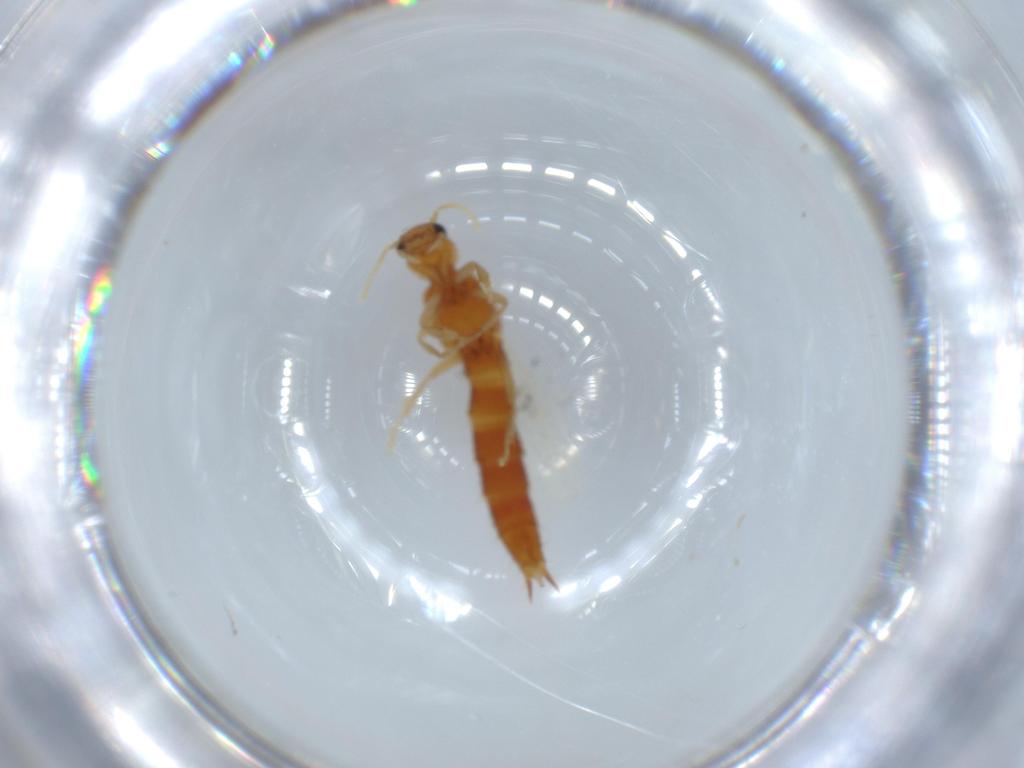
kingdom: Animalia
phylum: Arthropoda
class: Insecta
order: Coleoptera
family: Staphylinidae
